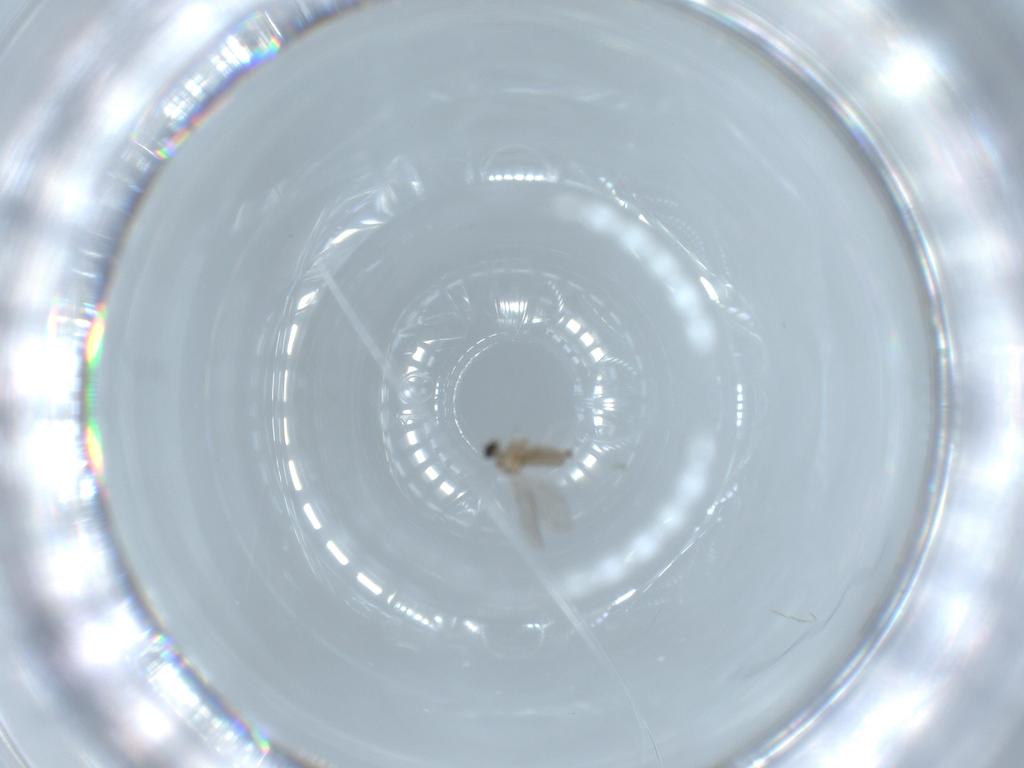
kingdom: Animalia
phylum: Arthropoda
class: Insecta
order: Diptera
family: Cecidomyiidae
